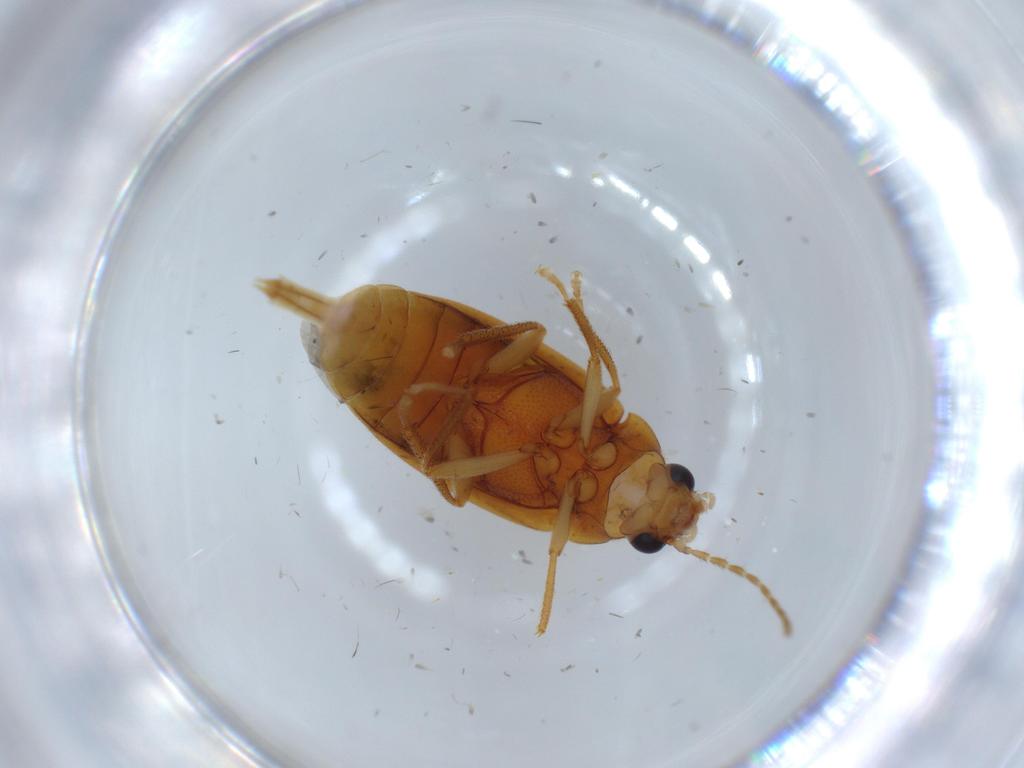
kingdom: Animalia
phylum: Arthropoda
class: Insecta
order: Coleoptera
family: Ptilodactylidae
